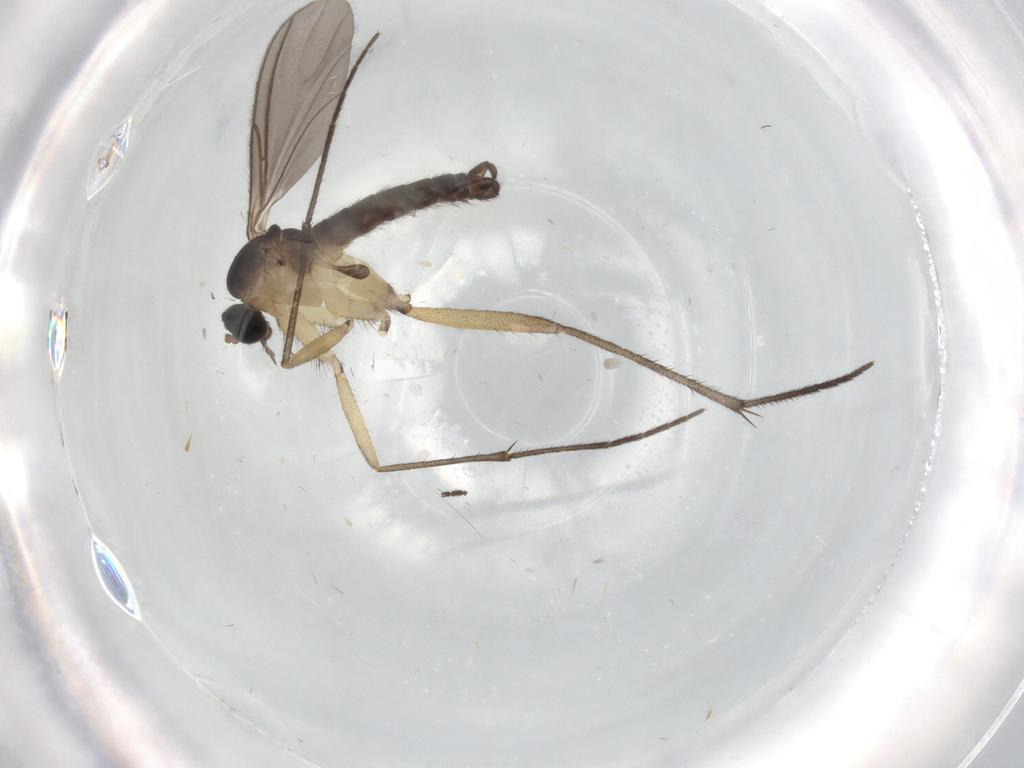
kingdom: Animalia
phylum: Arthropoda
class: Insecta
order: Diptera
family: Sciaridae
